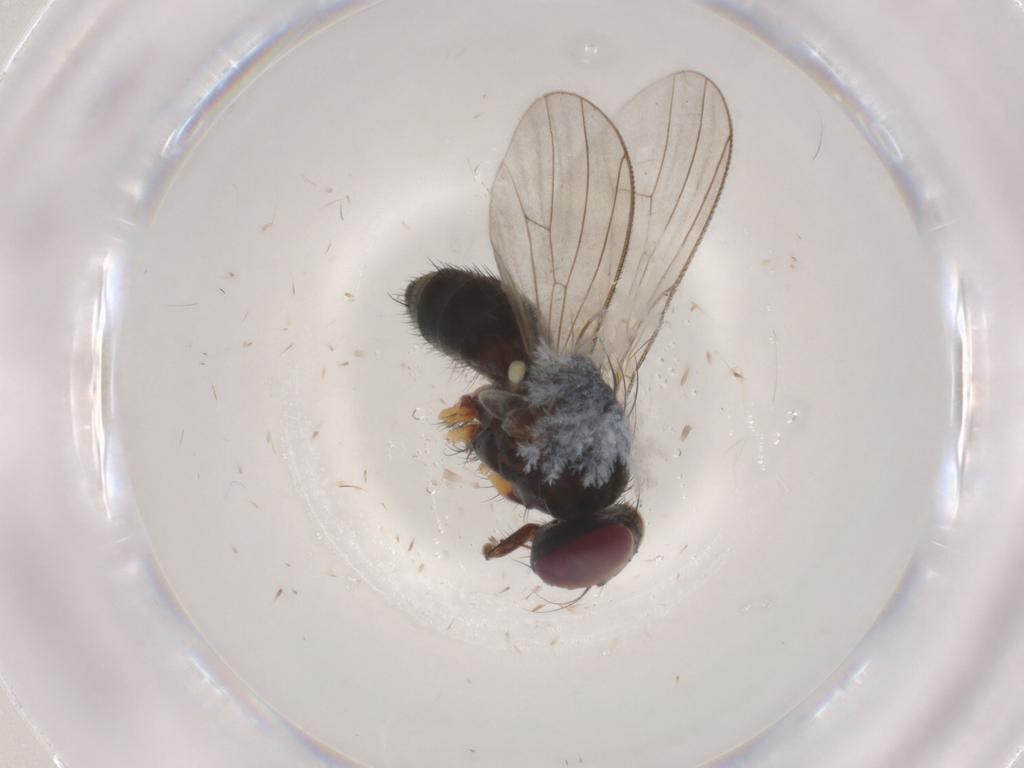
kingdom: Animalia
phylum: Arthropoda
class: Insecta
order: Diptera
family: Muscidae
